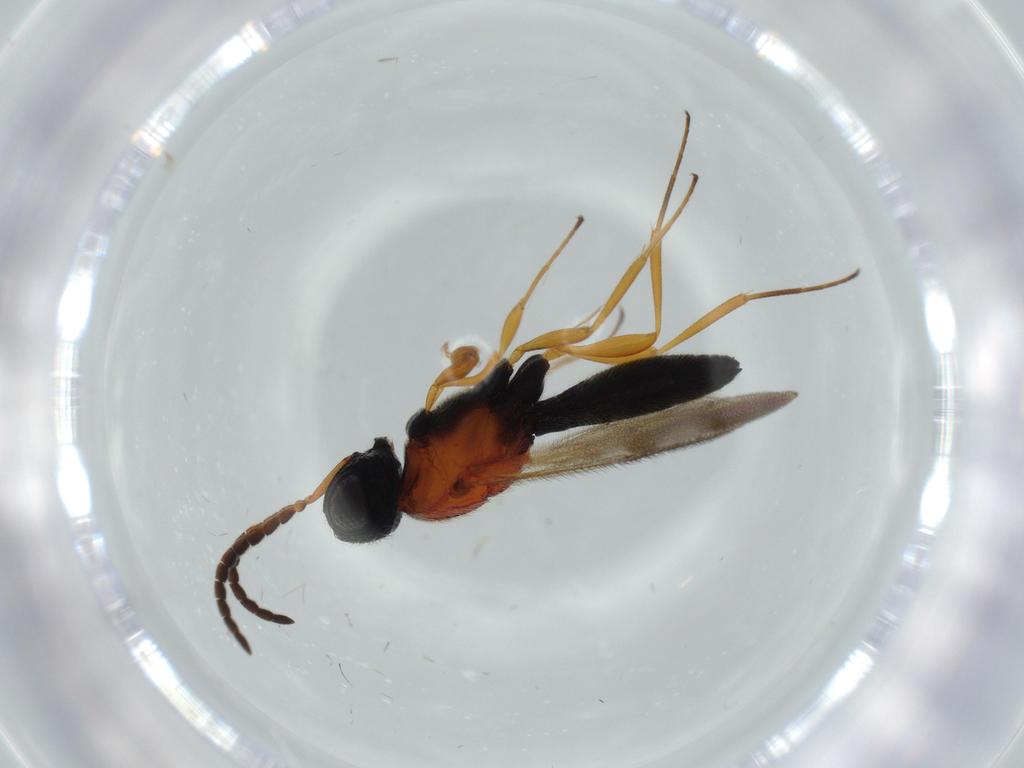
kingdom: Animalia
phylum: Arthropoda
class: Insecta
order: Hymenoptera
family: Scelionidae
